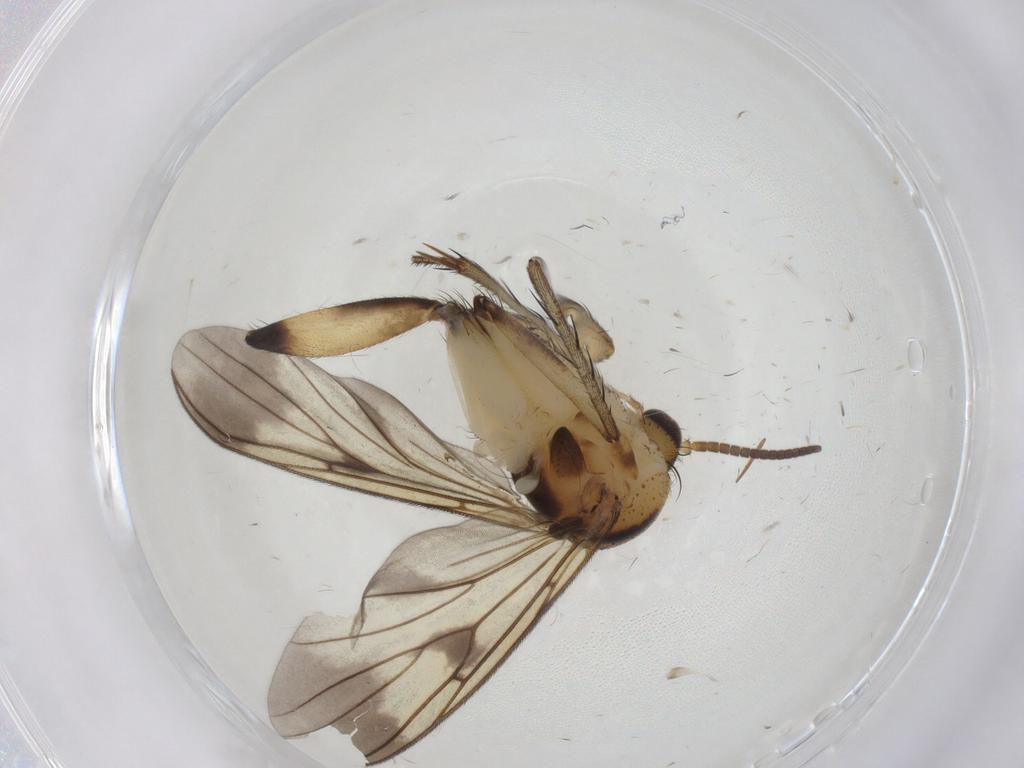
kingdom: Animalia
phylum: Arthropoda
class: Insecta
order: Diptera
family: Mycetophilidae
